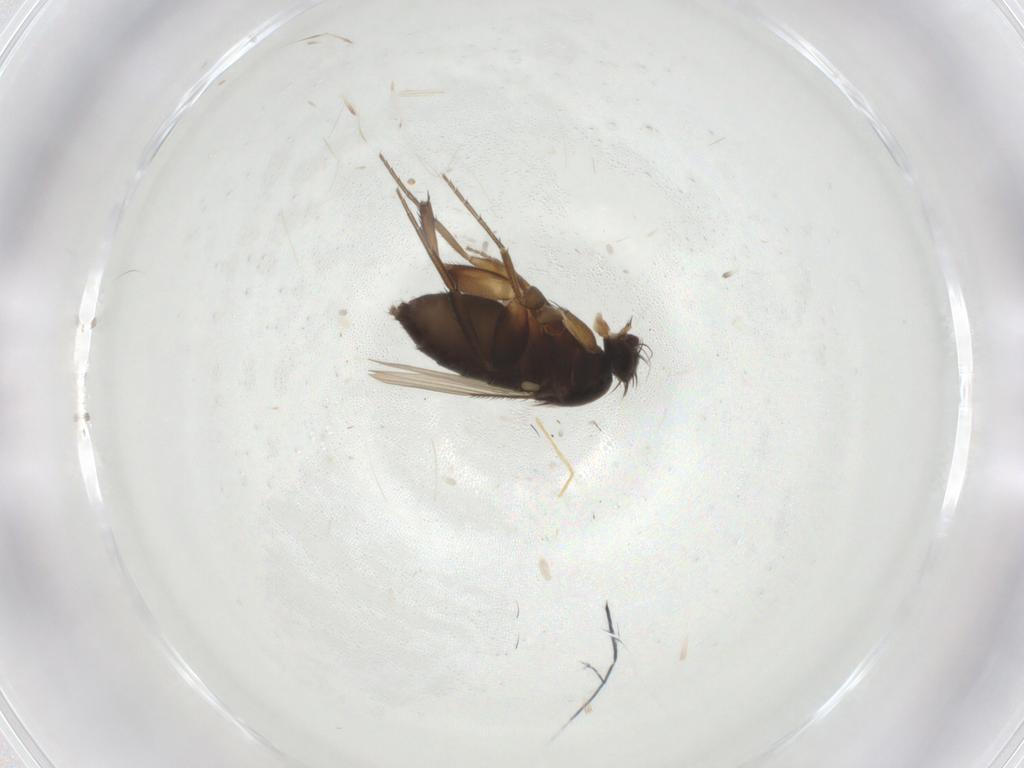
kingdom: Animalia
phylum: Arthropoda
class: Insecta
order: Diptera
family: Phoridae
